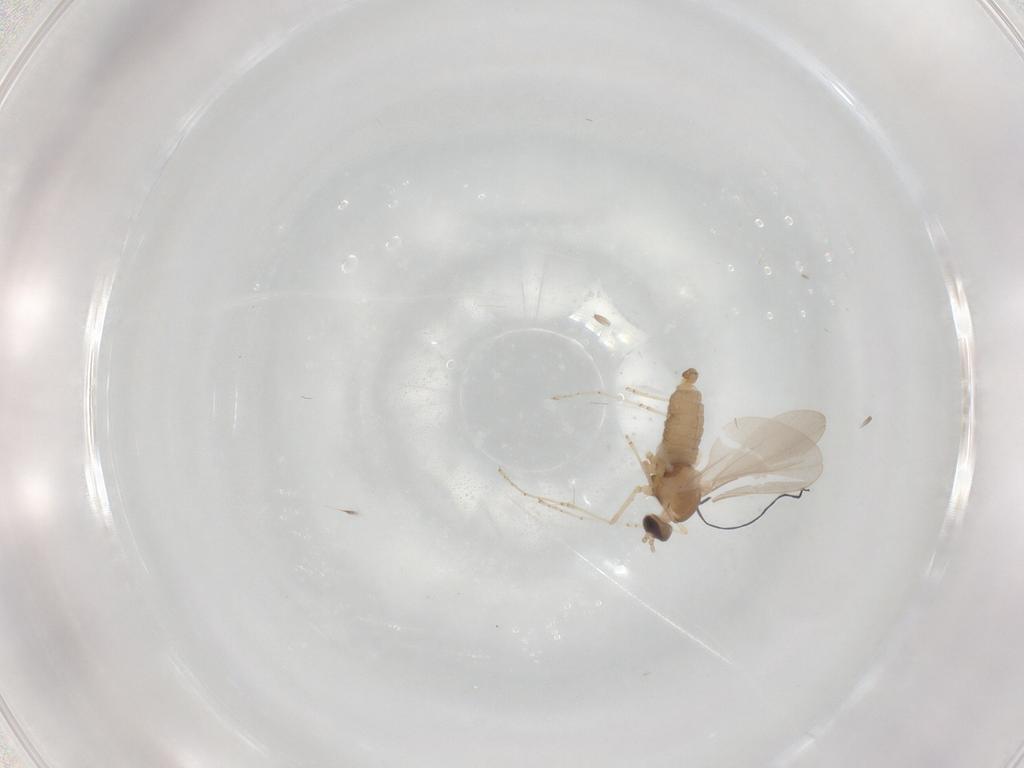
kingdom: Animalia
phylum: Arthropoda
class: Insecta
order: Diptera
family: Cecidomyiidae
